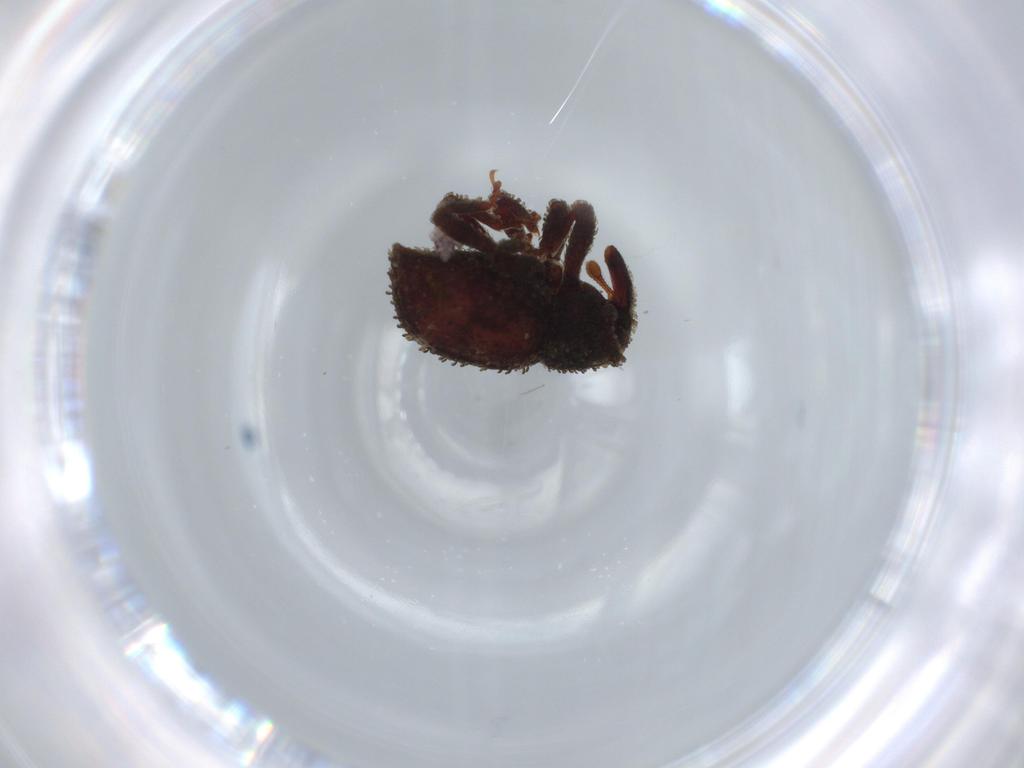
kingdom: Animalia
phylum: Arthropoda
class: Insecta
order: Coleoptera
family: Curculionidae
